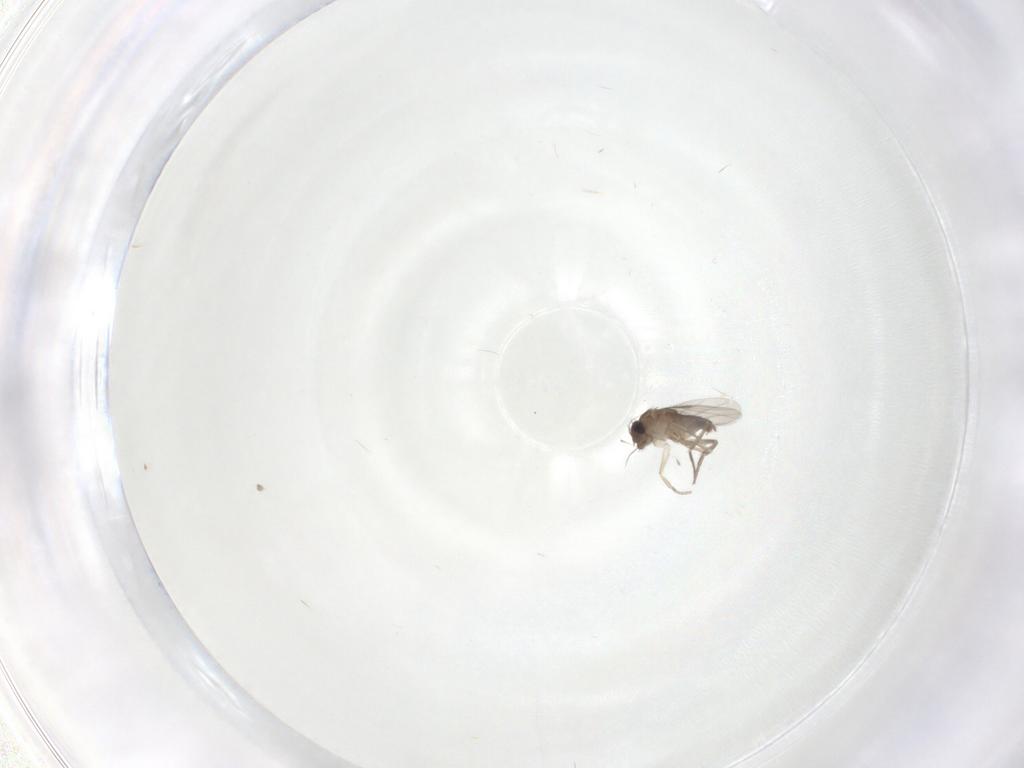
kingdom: Animalia
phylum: Arthropoda
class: Insecta
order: Diptera
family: Phoridae
